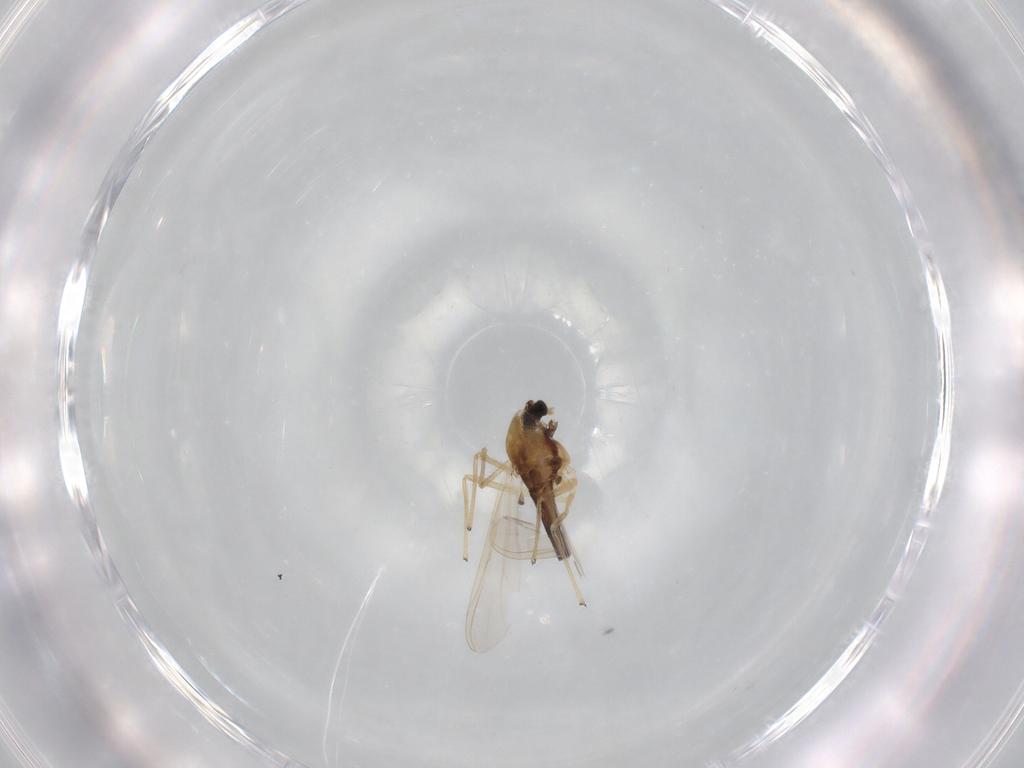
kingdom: Animalia
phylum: Arthropoda
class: Insecta
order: Diptera
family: Chironomidae
